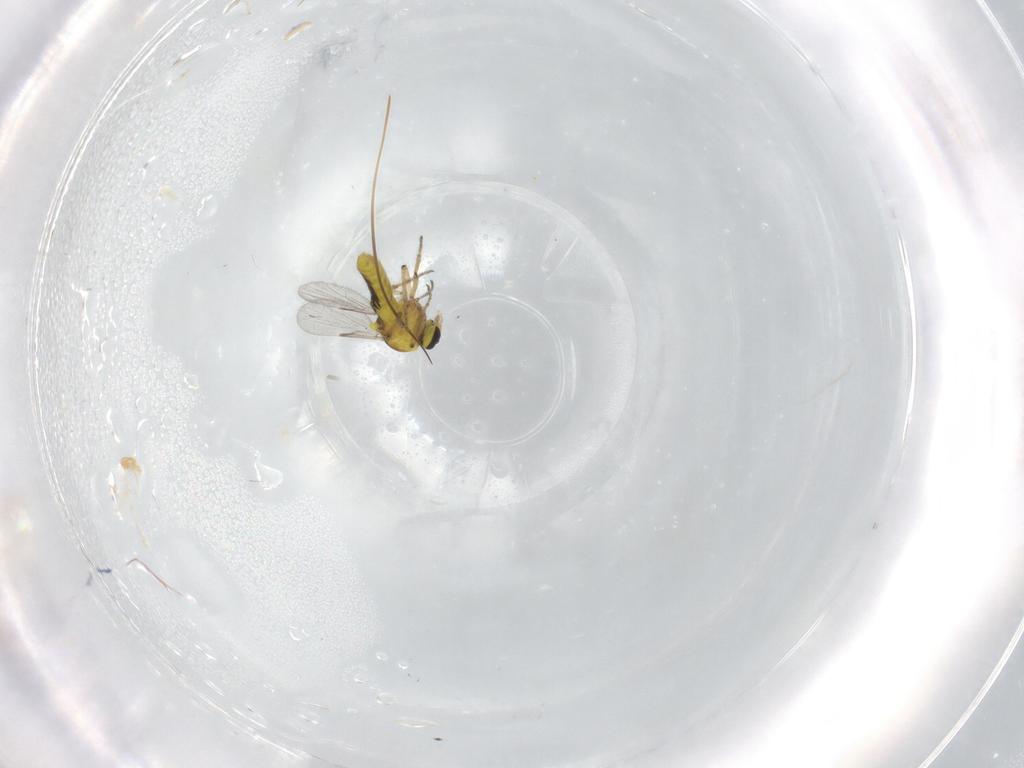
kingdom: Animalia
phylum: Arthropoda
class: Insecta
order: Diptera
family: Ceratopogonidae
